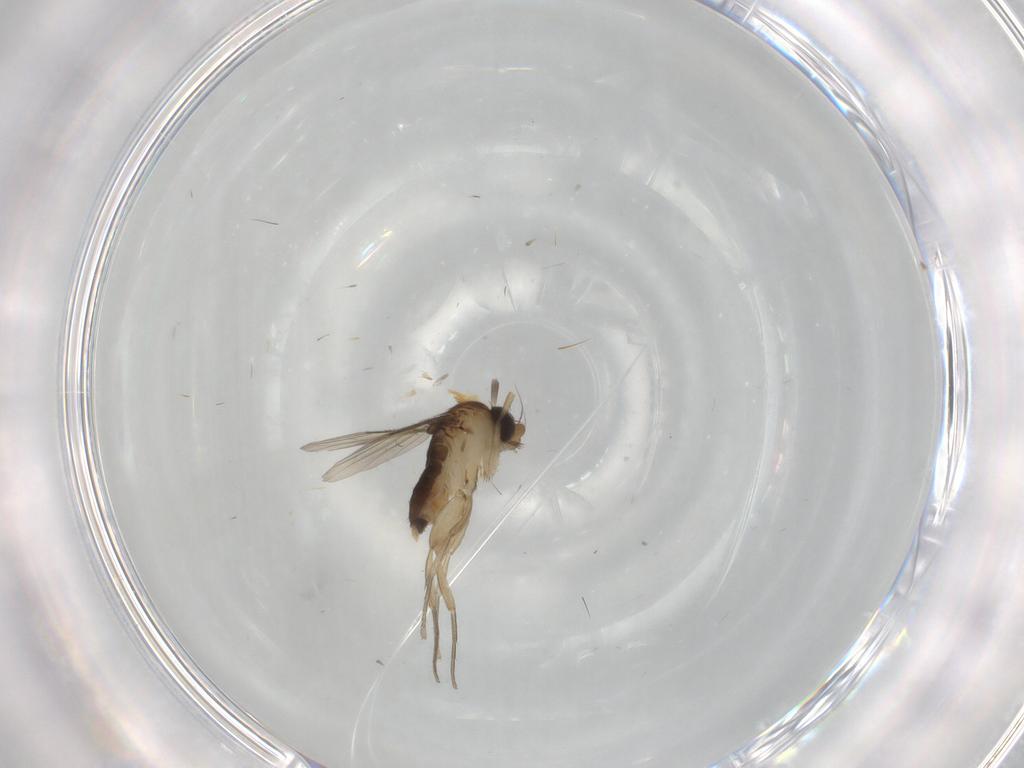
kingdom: Animalia
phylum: Arthropoda
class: Insecta
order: Diptera
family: Phoridae
